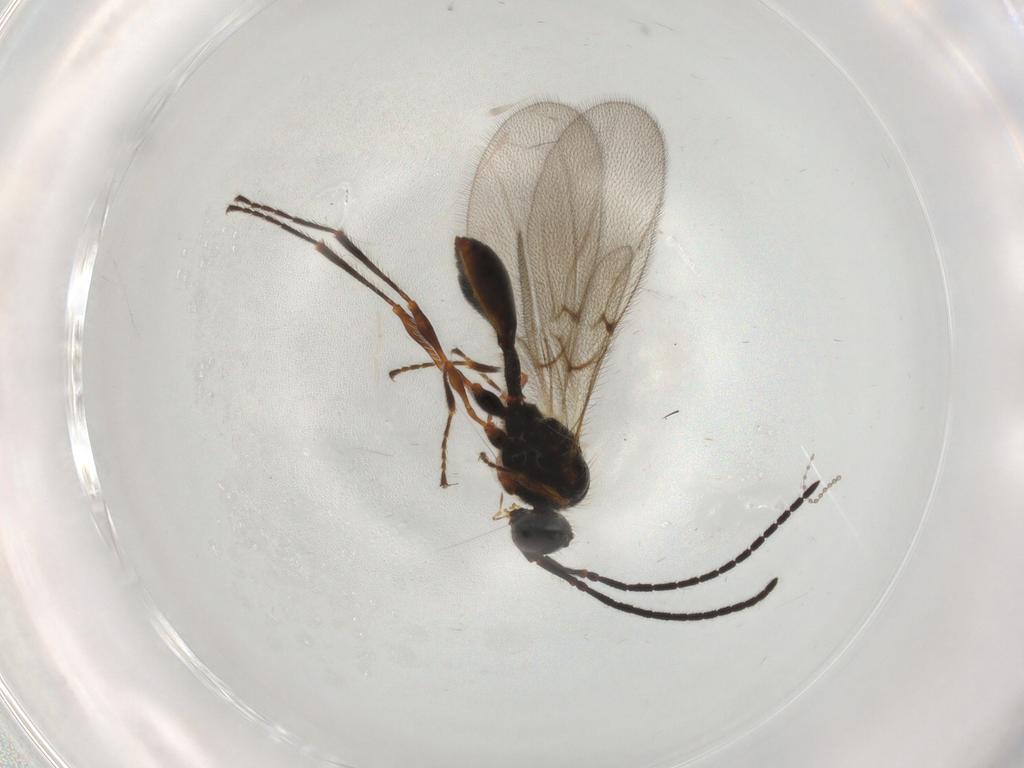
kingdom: Animalia
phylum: Arthropoda
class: Insecta
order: Hymenoptera
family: Diapriidae
